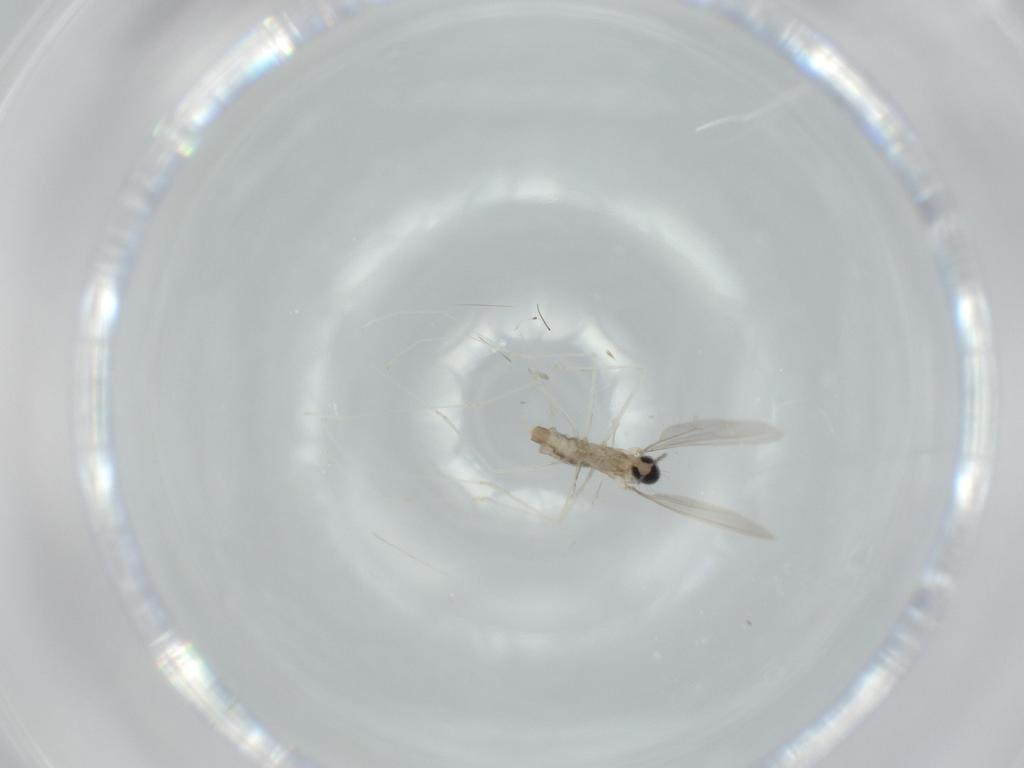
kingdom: Animalia
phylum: Arthropoda
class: Insecta
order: Diptera
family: Cecidomyiidae
